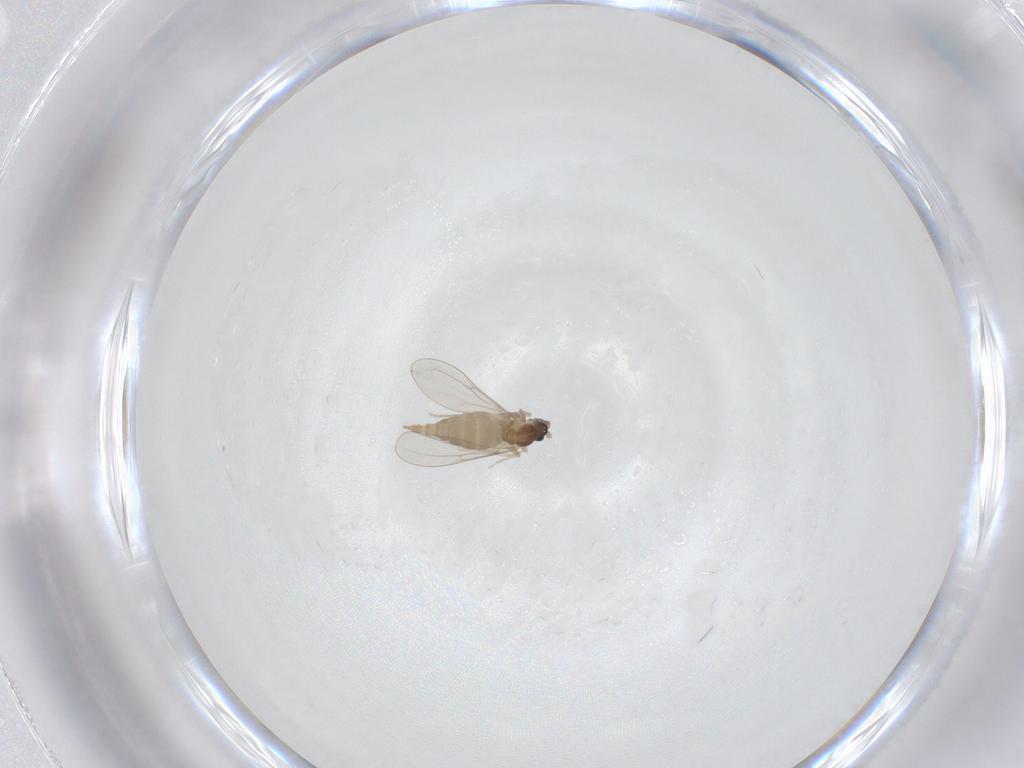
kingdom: Animalia
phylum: Arthropoda
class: Insecta
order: Diptera
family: Cecidomyiidae
